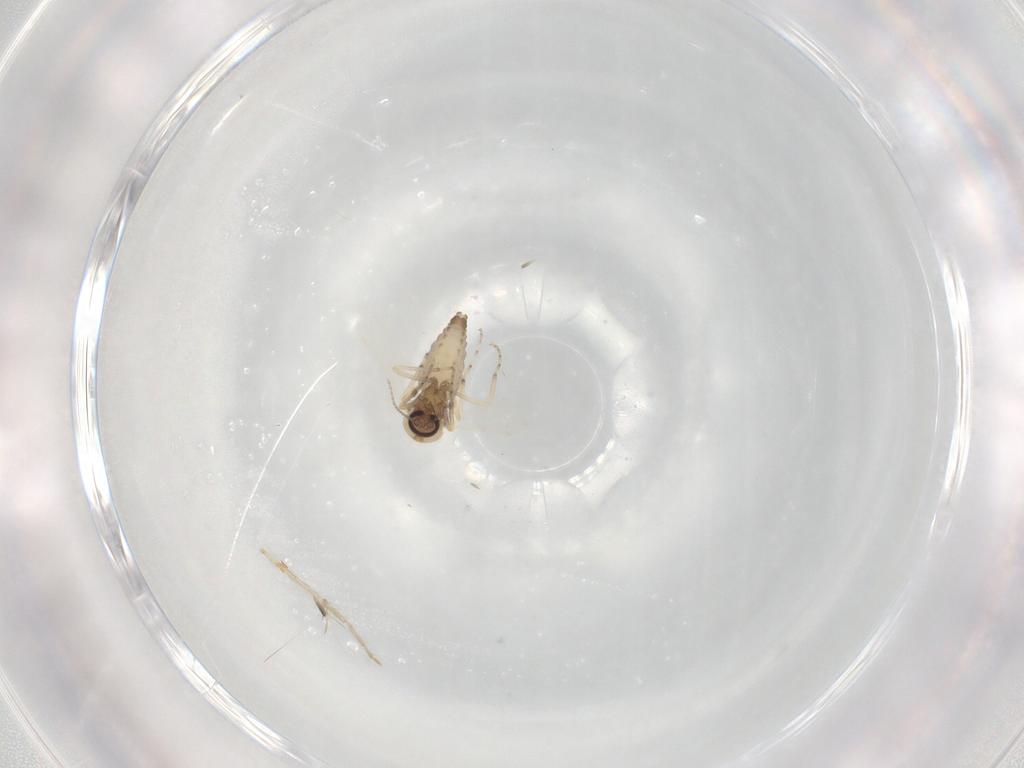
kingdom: Animalia
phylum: Arthropoda
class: Insecta
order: Diptera
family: Chironomidae
